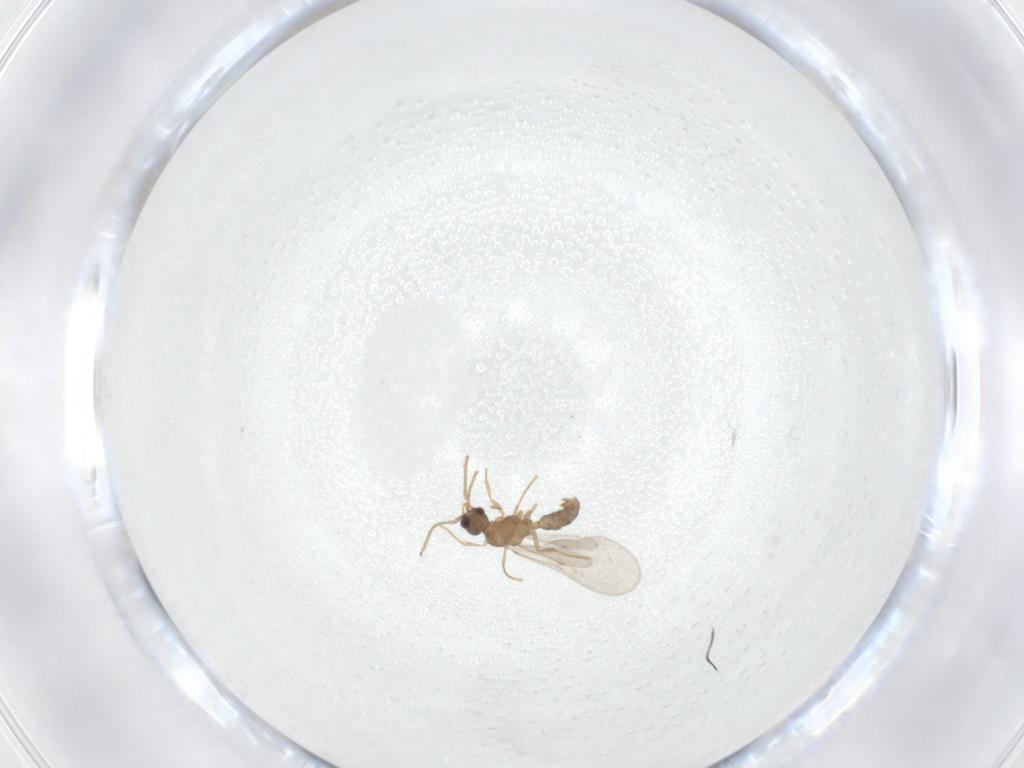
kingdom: Animalia
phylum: Arthropoda
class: Insecta
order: Hymenoptera
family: Formicidae
